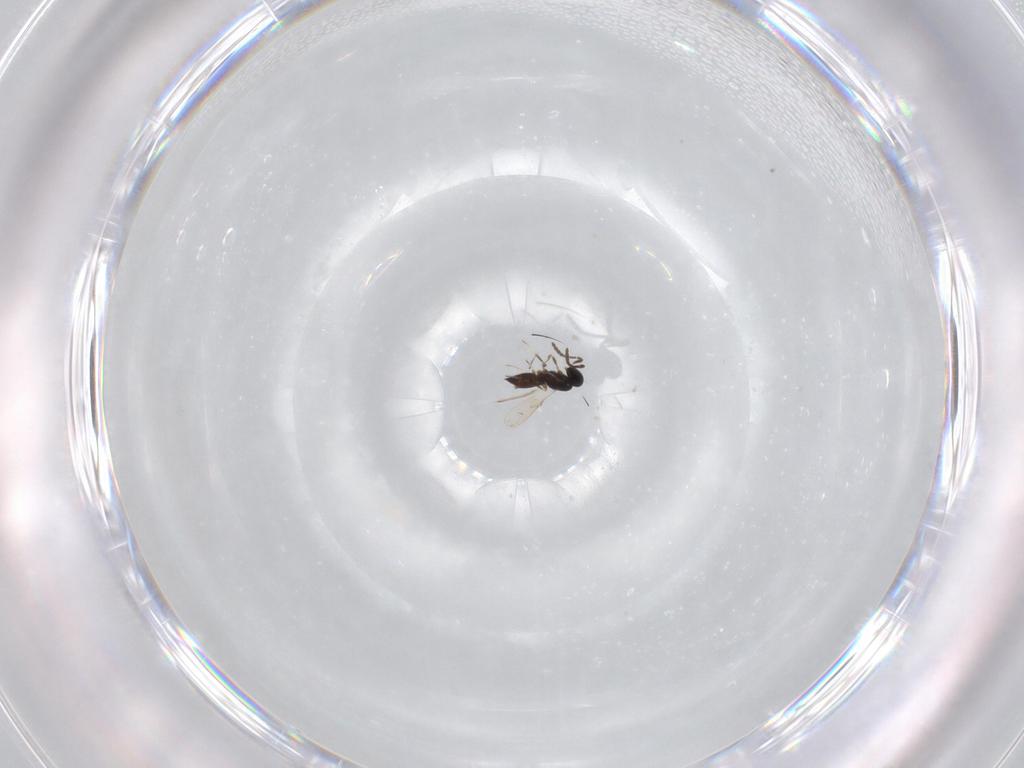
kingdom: Animalia
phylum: Arthropoda
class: Insecta
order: Hymenoptera
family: Scelionidae
